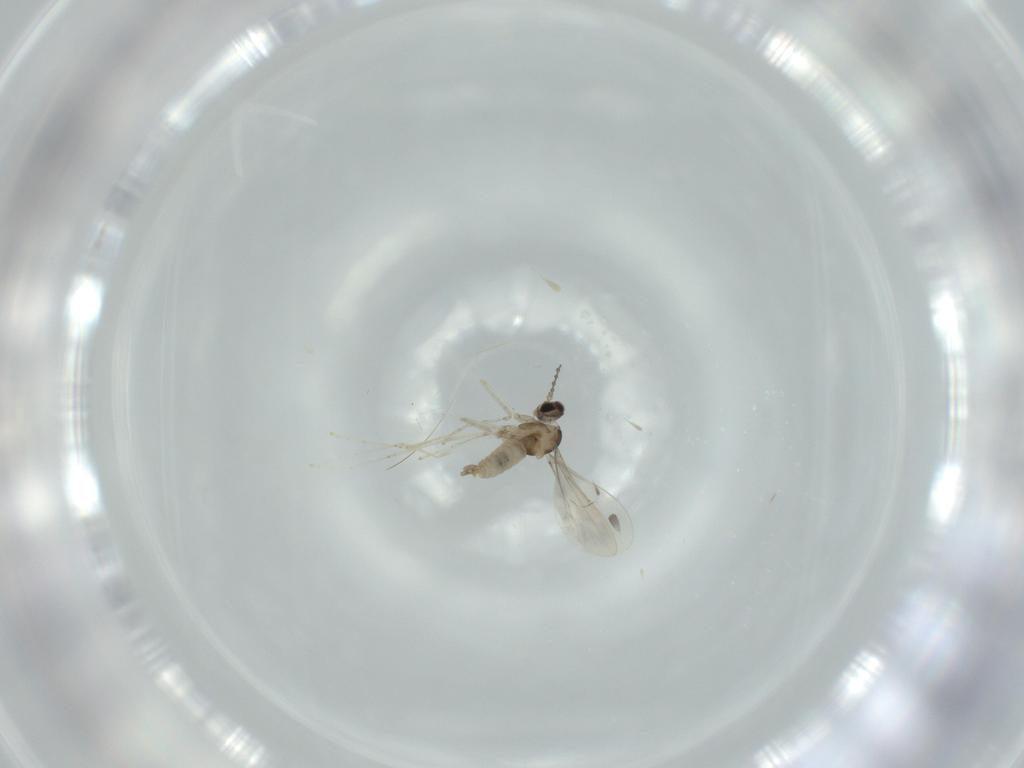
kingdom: Animalia
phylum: Arthropoda
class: Insecta
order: Diptera
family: Cecidomyiidae
